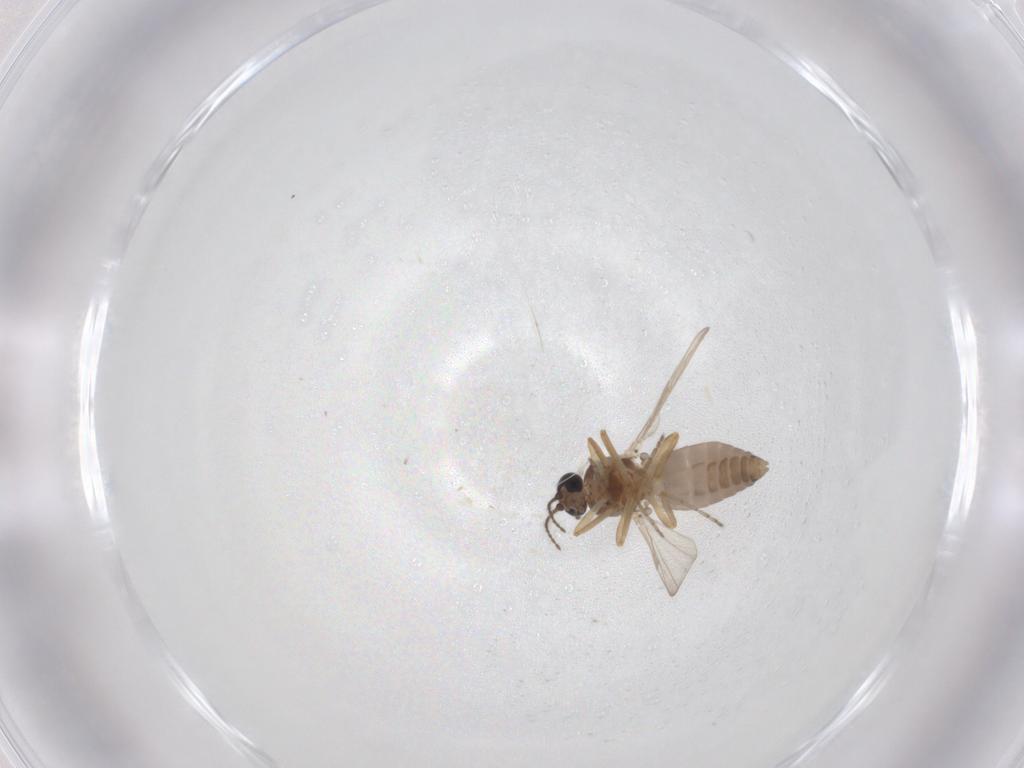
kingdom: Animalia
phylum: Arthropoda
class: Insecta
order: Diptera
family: Ceratopogonidae
